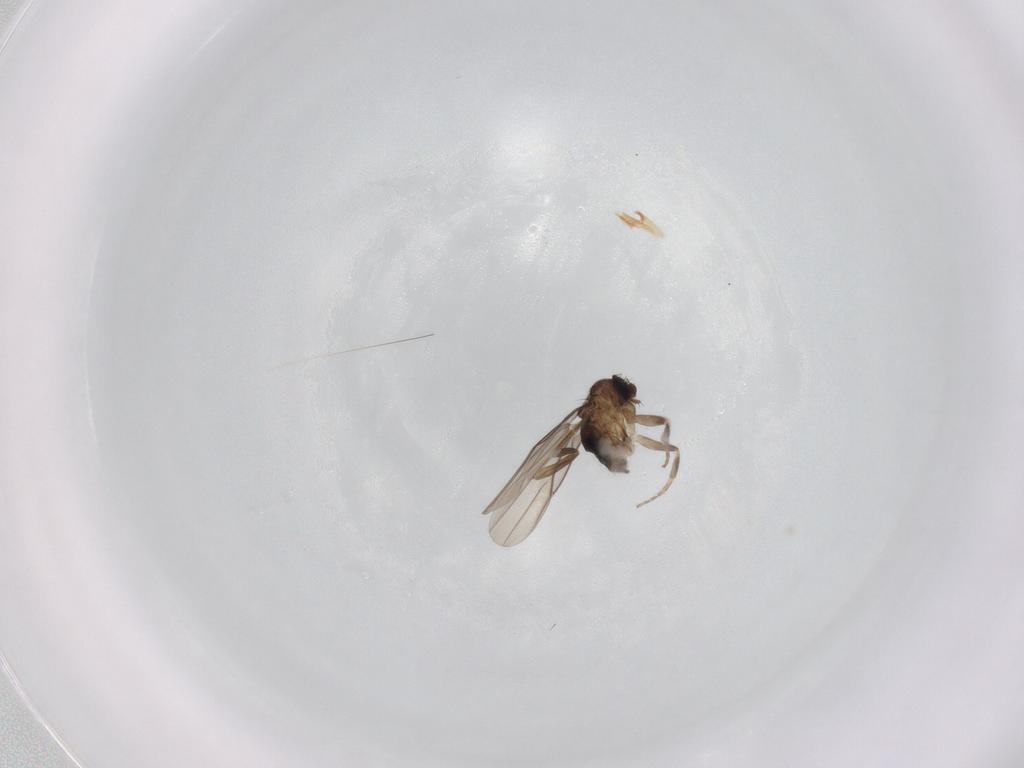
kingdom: Animalia
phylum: Arthropoda
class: Insecta
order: Diptera
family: Phoridae
